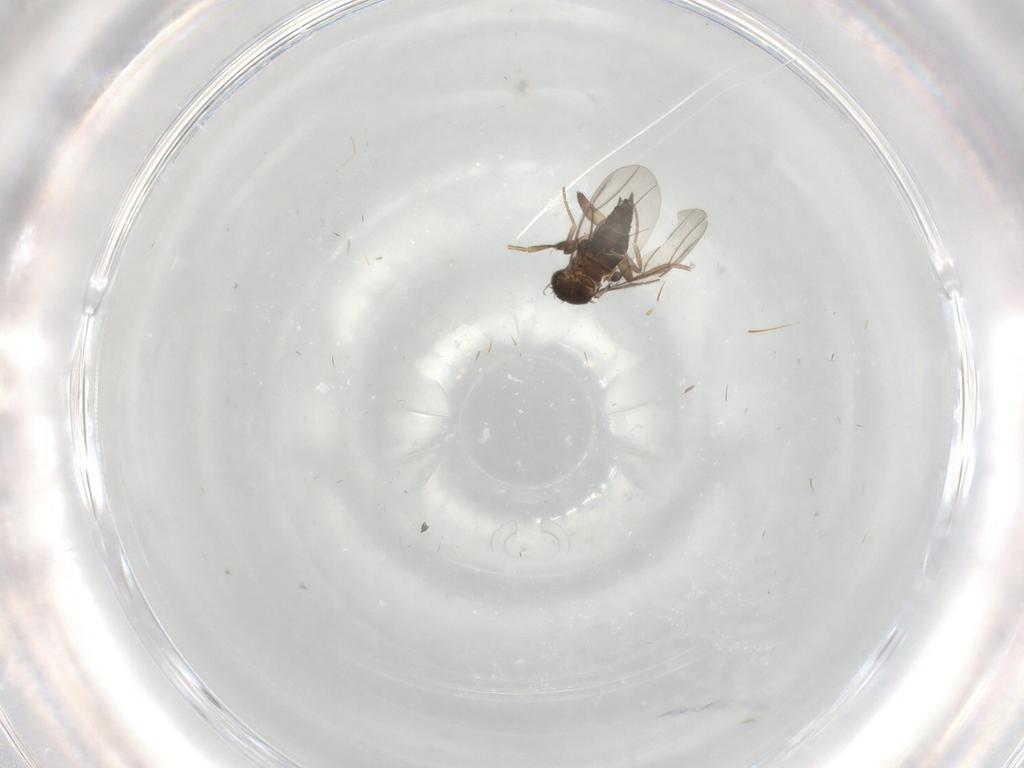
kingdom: Animalia
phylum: Arthropoda
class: Insecta
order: Diptera
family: Phoridae
